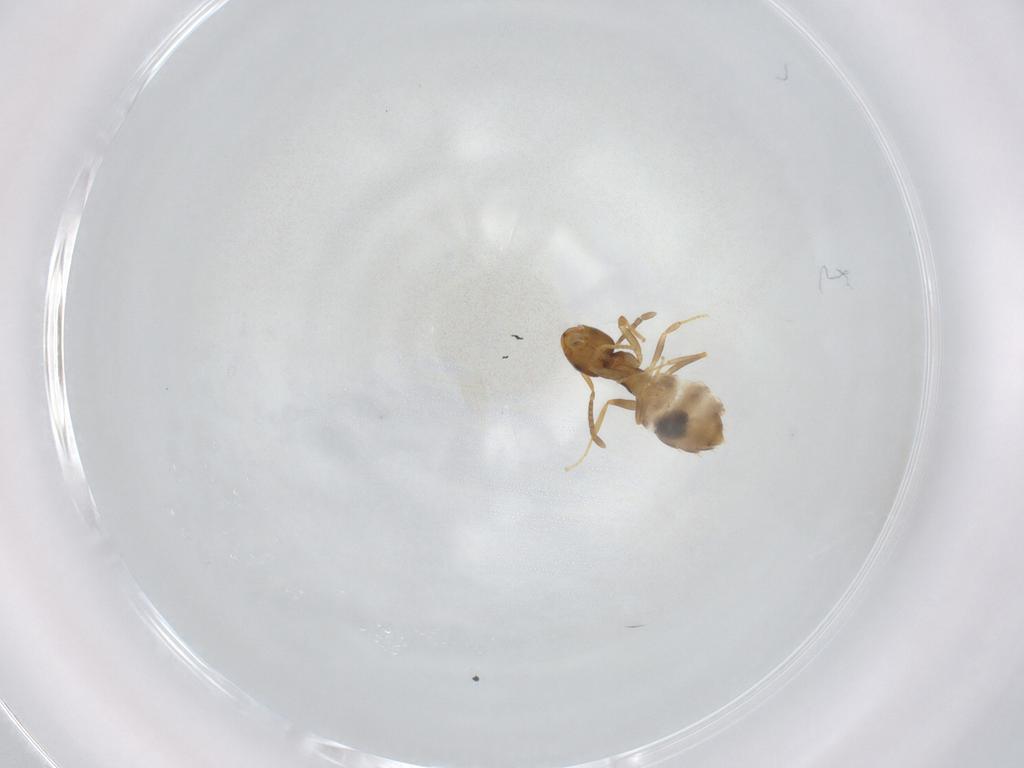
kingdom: Animalia
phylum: Arthropoda
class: Insecta
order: Hymenoptera
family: Formicidae
